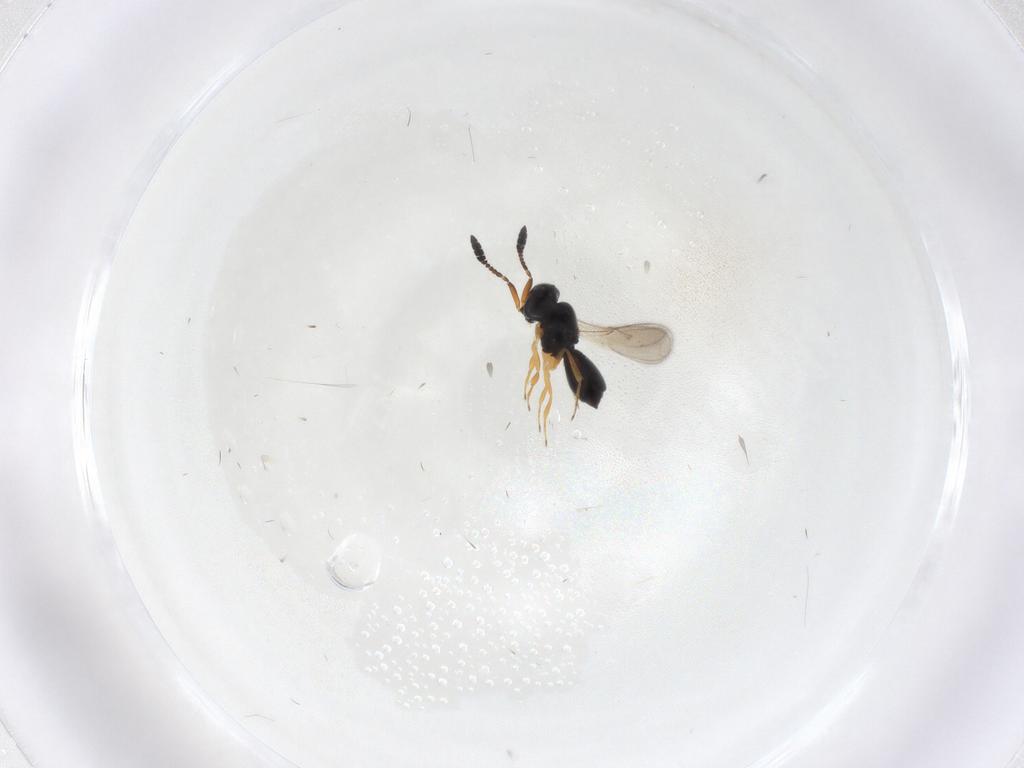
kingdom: Animalia
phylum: Arthropoda
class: Insecta
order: Hymenoptera
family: Scelionidae
